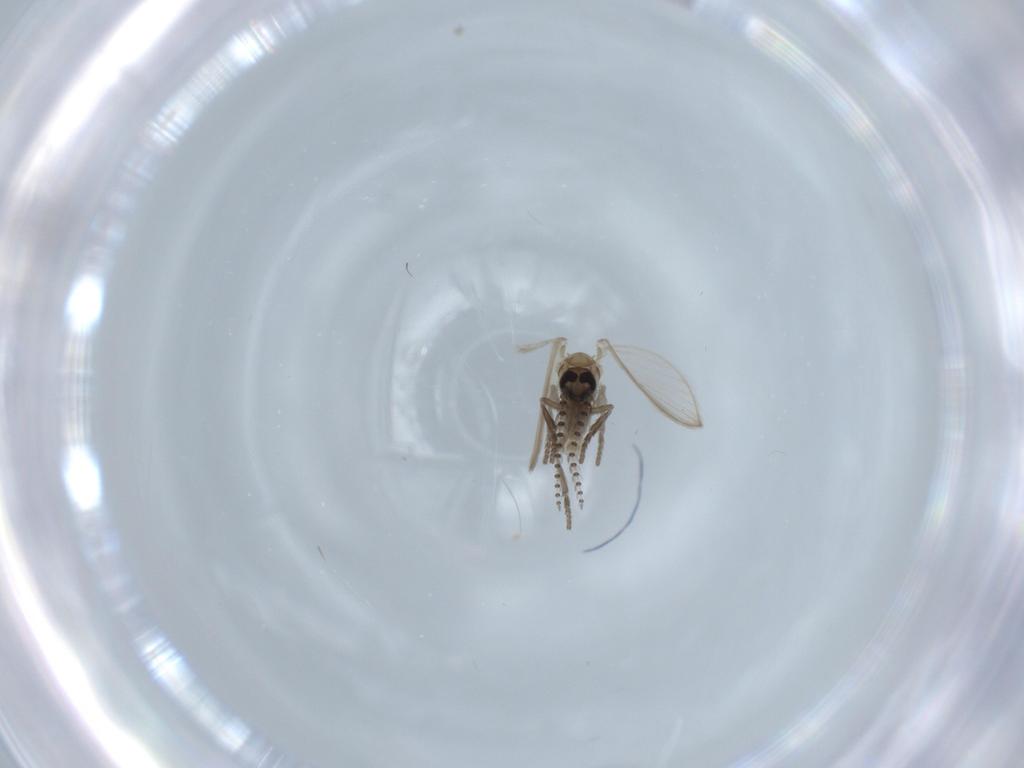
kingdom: Animalia
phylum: Arthropoda
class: Insecta
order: Diptera
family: Psychodidae
